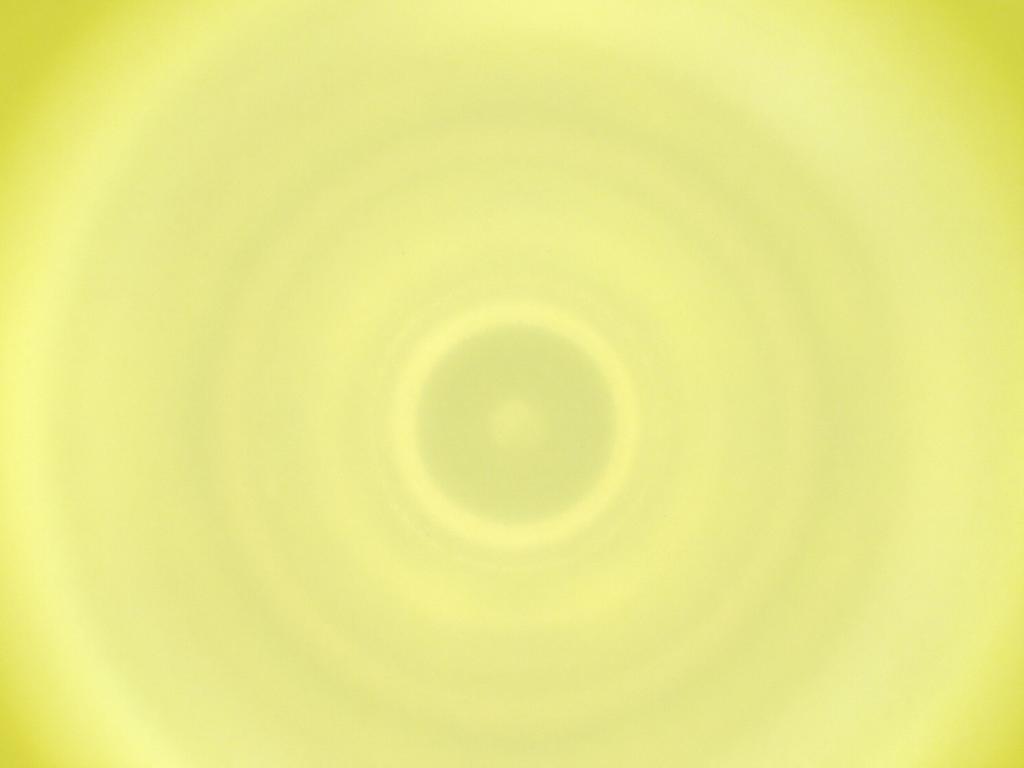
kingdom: Animalia
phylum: Arthropoda
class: Insecta
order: Diptera
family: Cecidomyiidae
